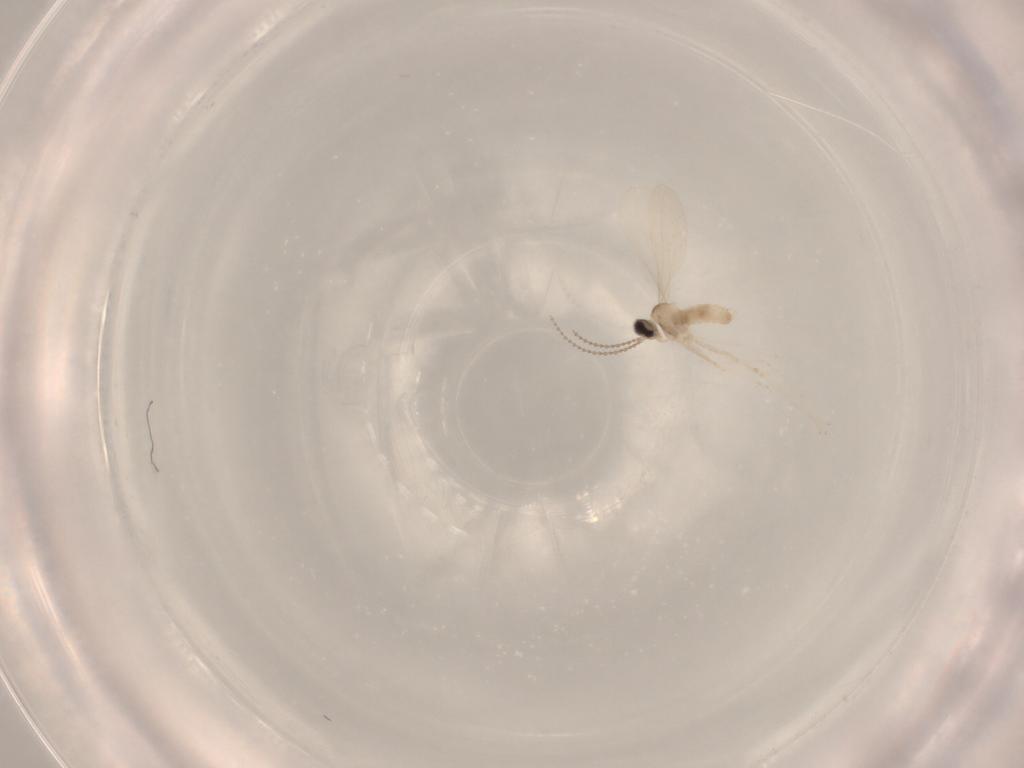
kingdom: Animalia
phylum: Arthropoda
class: Insecta
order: Diptera
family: Cecidomyiidae
